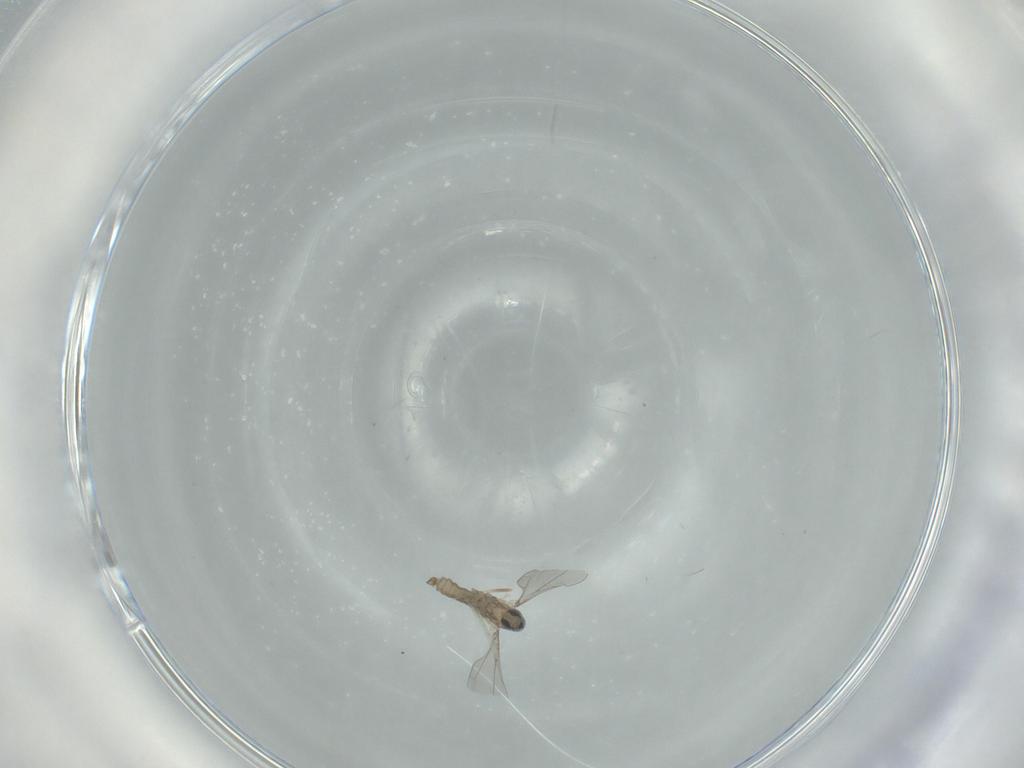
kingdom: Animalia
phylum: Arthropoda
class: Insecta
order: Diptera
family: Cecidomyiidae
